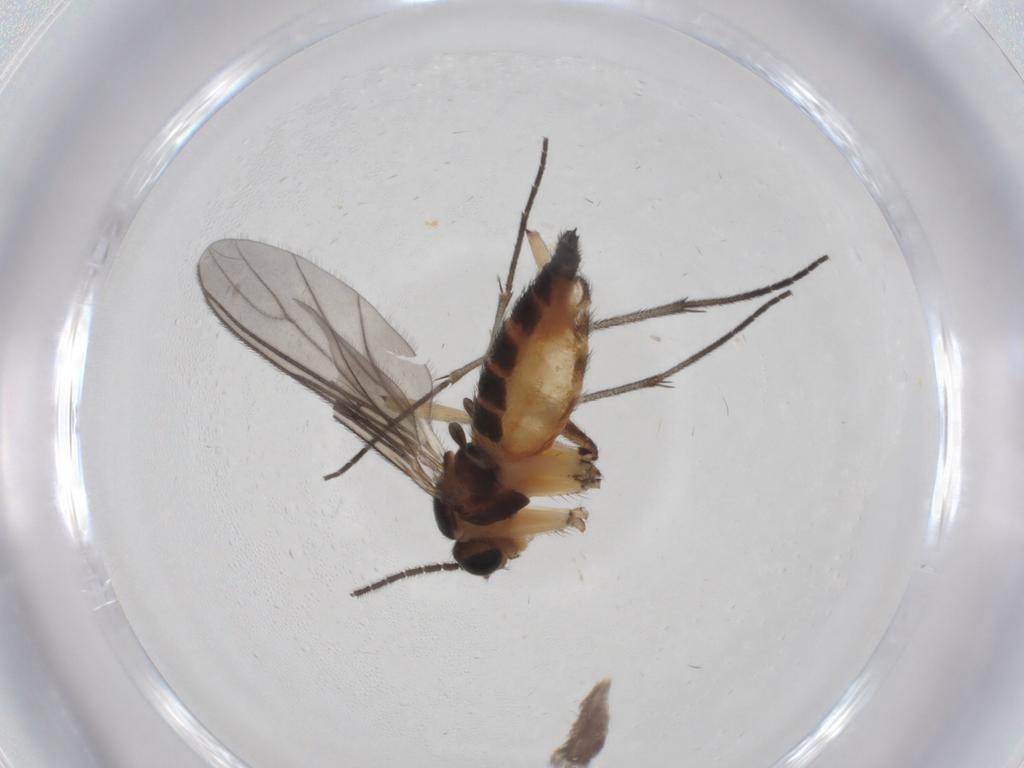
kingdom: Animalia
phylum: Arthropoda
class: Insecta
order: Diptera
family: Sciaridae
